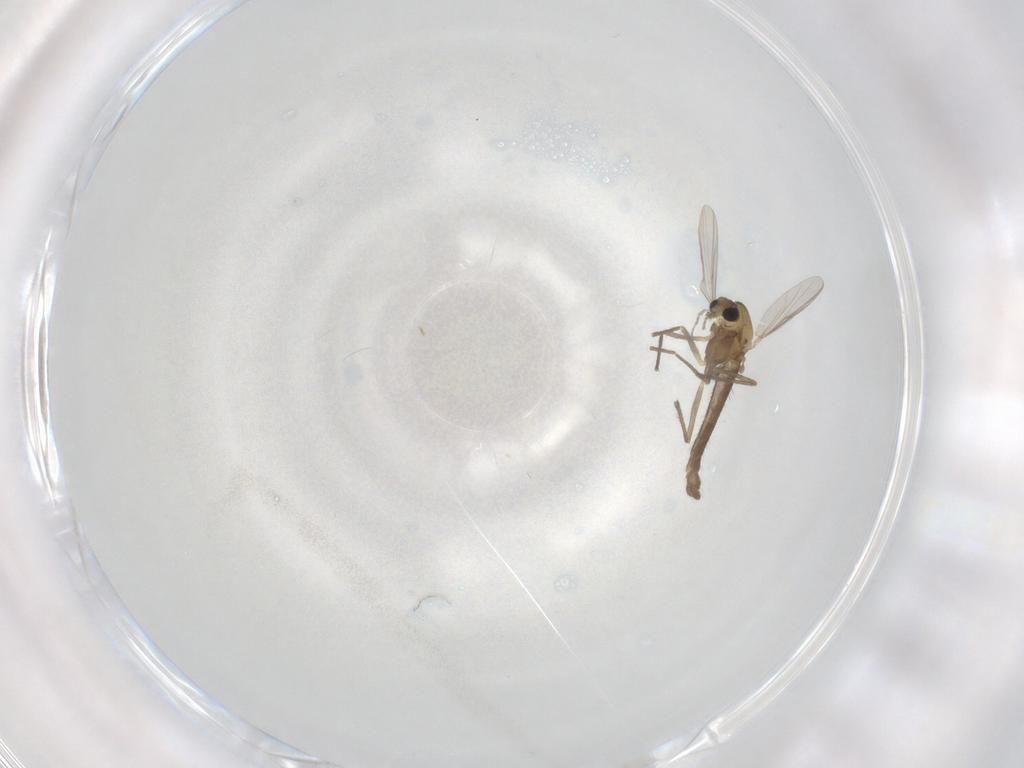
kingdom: Animalia
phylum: Arthropoda
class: Insecta
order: Diptera
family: Chironomidae
